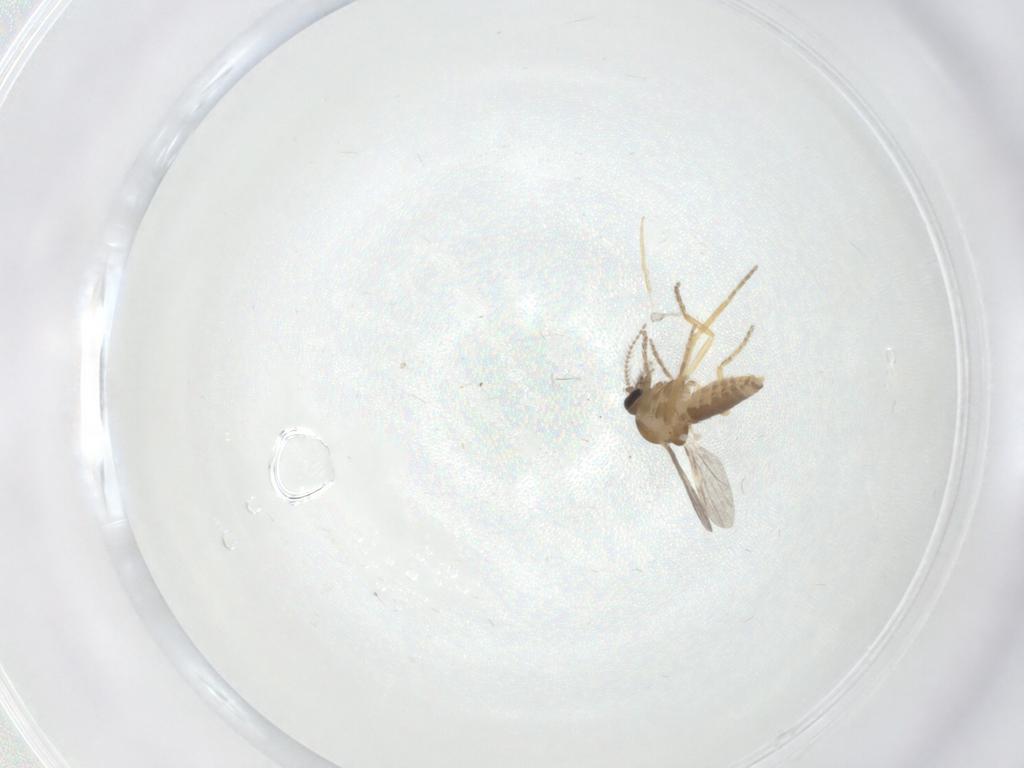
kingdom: Animalia
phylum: Arthropoda
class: Insecta
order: Diptera
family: Ceratopogonidae
